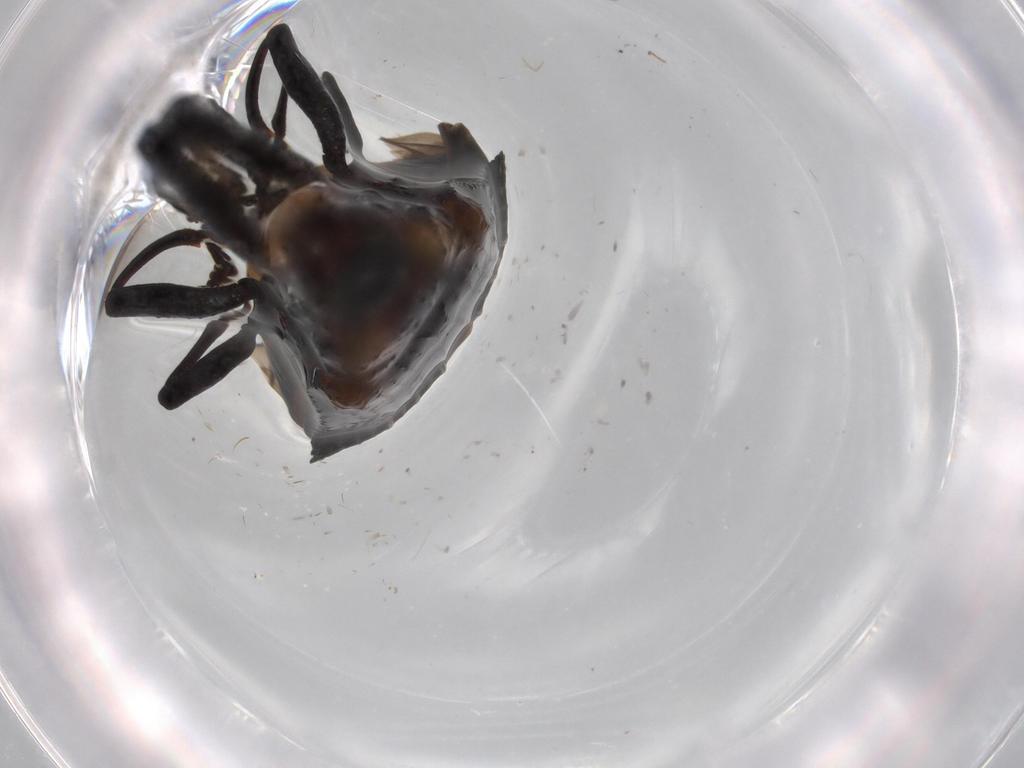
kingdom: Animalia
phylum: Arthropoda
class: Insecta
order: Coleoptera
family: Chrysomelidae
